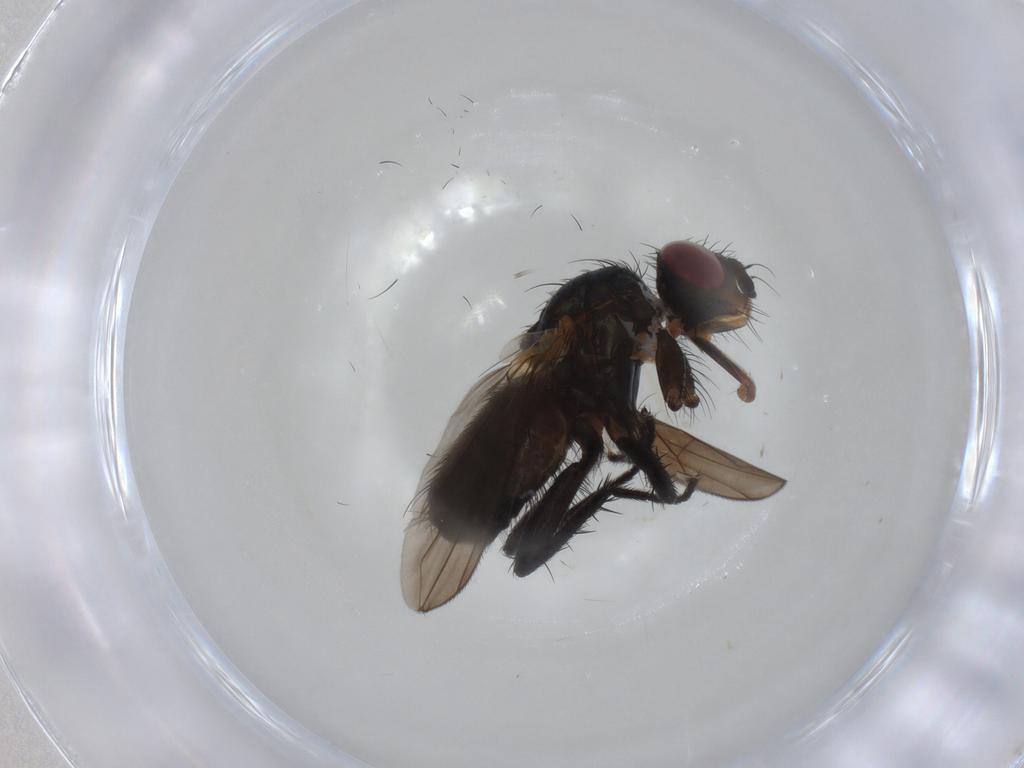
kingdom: Animalia
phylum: Arthropoda
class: Insecta
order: Diptera
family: Calliphoridae
